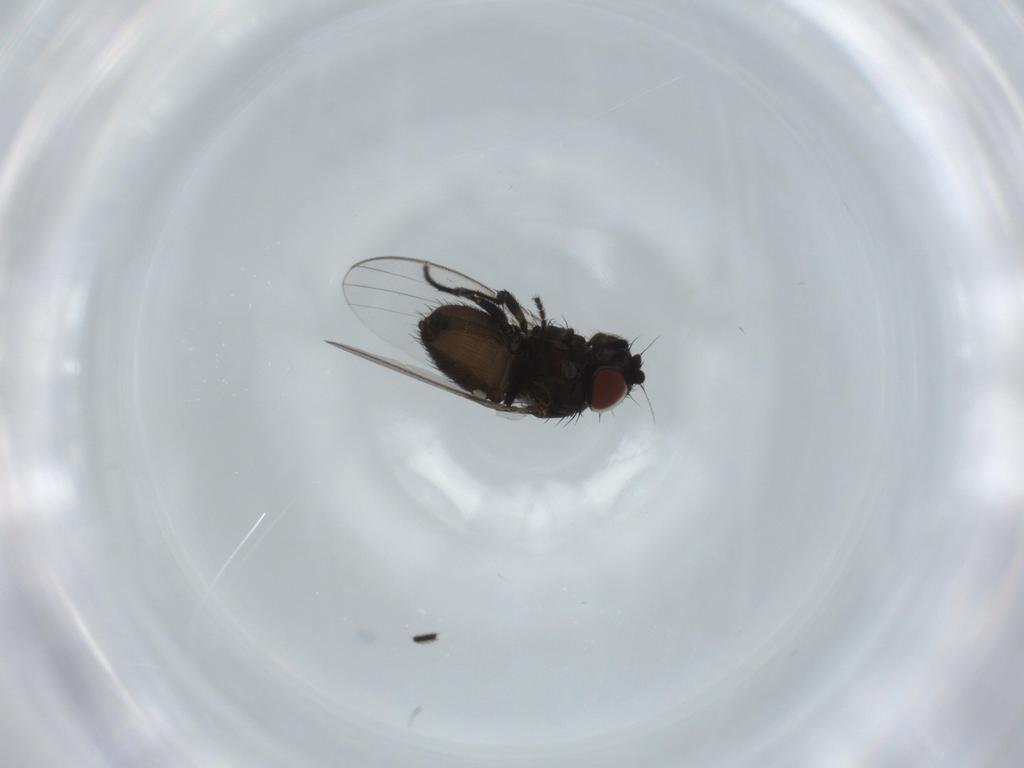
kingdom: Animalia
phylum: Arthropoda
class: Insecta
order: Diptera
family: Milichiidae
